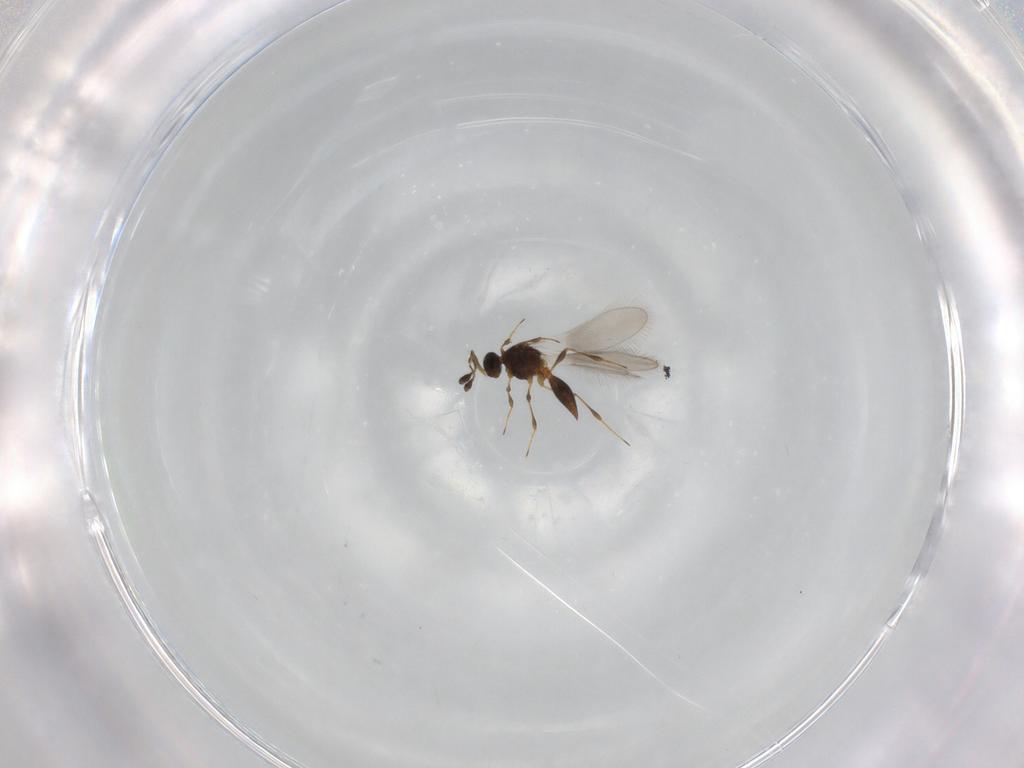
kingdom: Animalia
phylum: Arthropoda
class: Insecta
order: Hymenoptera
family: Platygastridae
